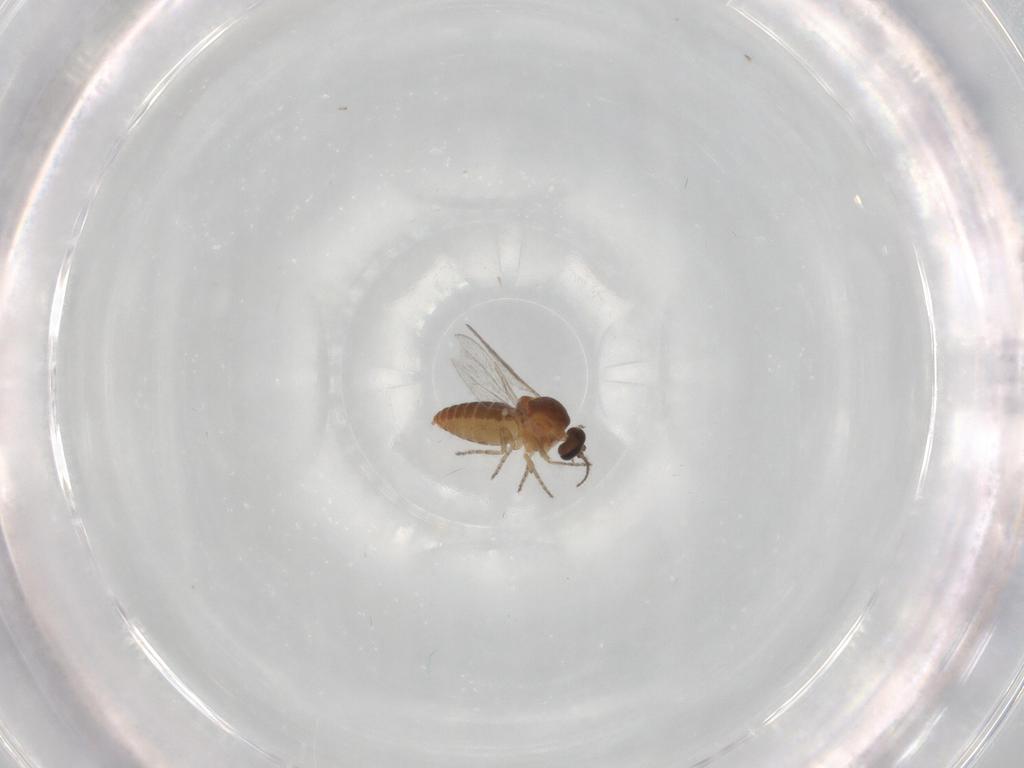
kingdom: Animalia
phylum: Arthropoda
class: Insecta
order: Diptera
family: Ceratopogonidae
